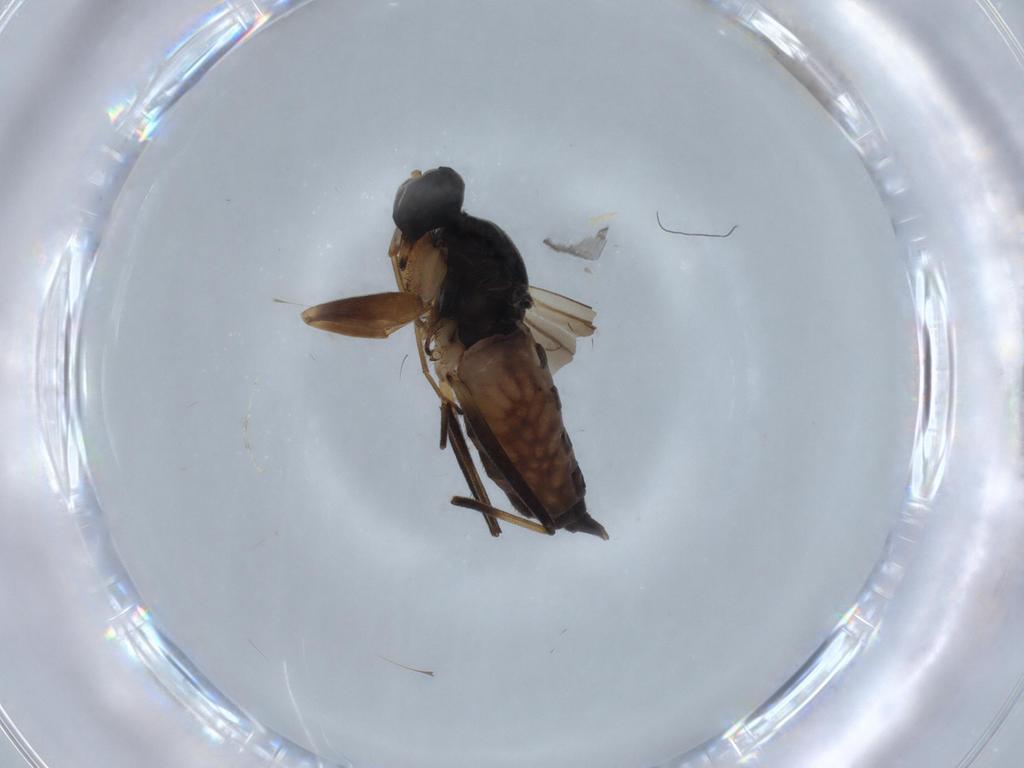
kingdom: Animalia
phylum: Arthropoda
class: Insecta
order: Diptera
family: Hybotidae
